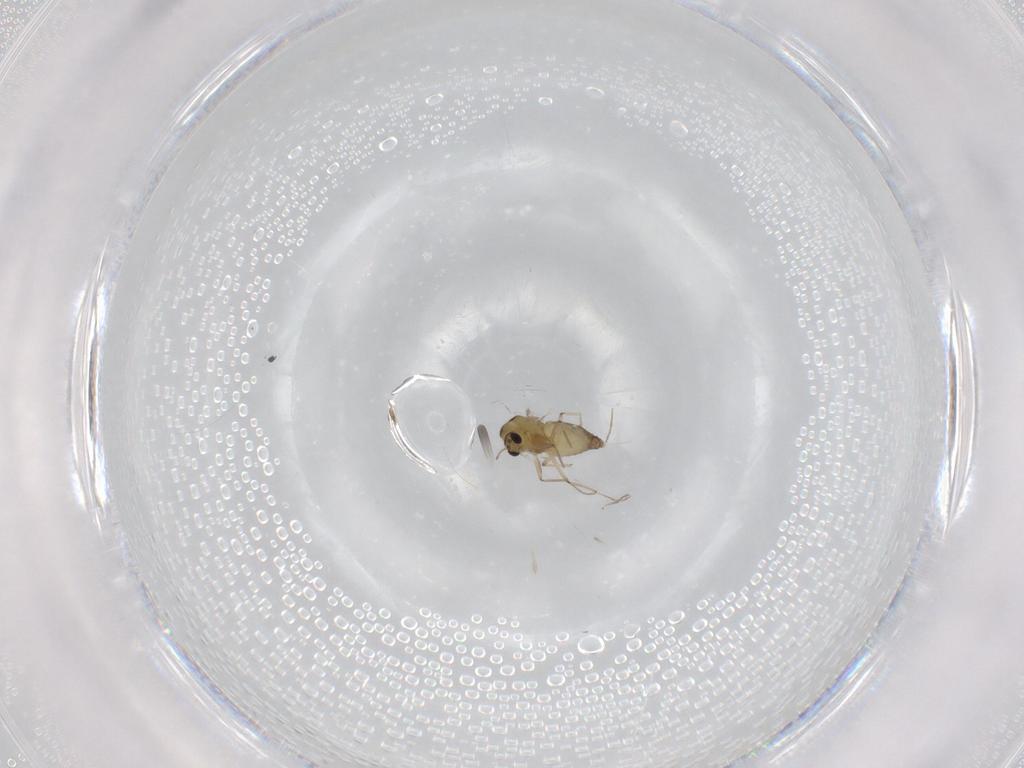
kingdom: Animalia
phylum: Arthropoda
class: Insecta
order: Diptera
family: Chironomidae
